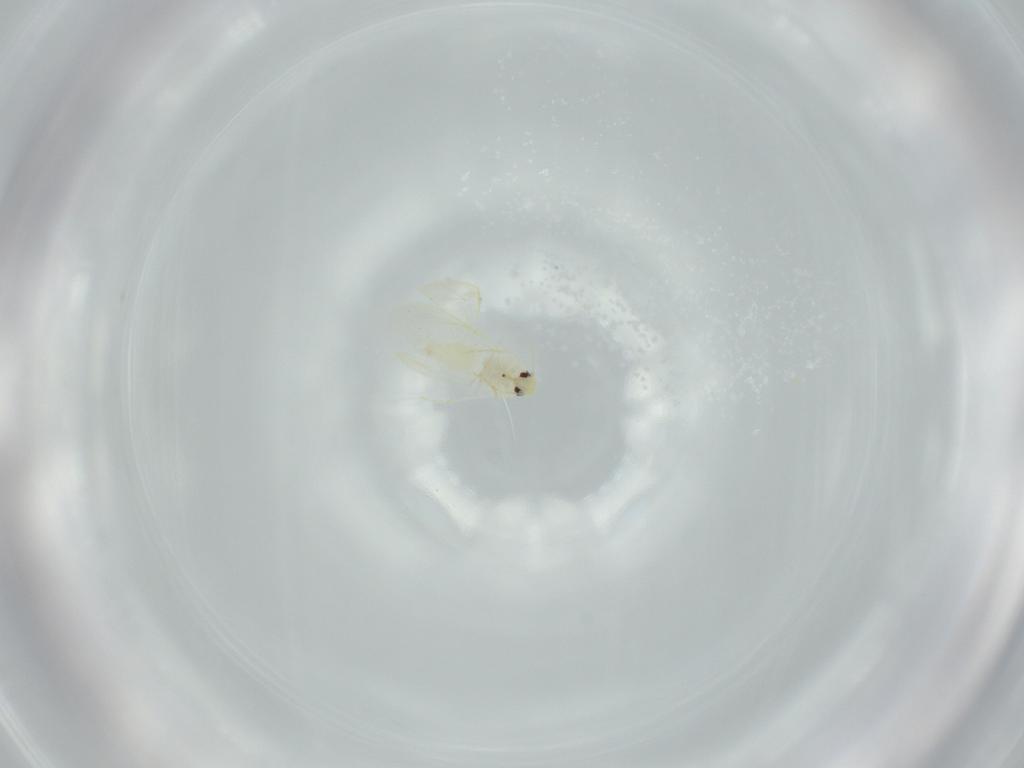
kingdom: Animalia
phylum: Arthropoda
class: Insecta
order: Hemiptera
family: Aleyrodidae
